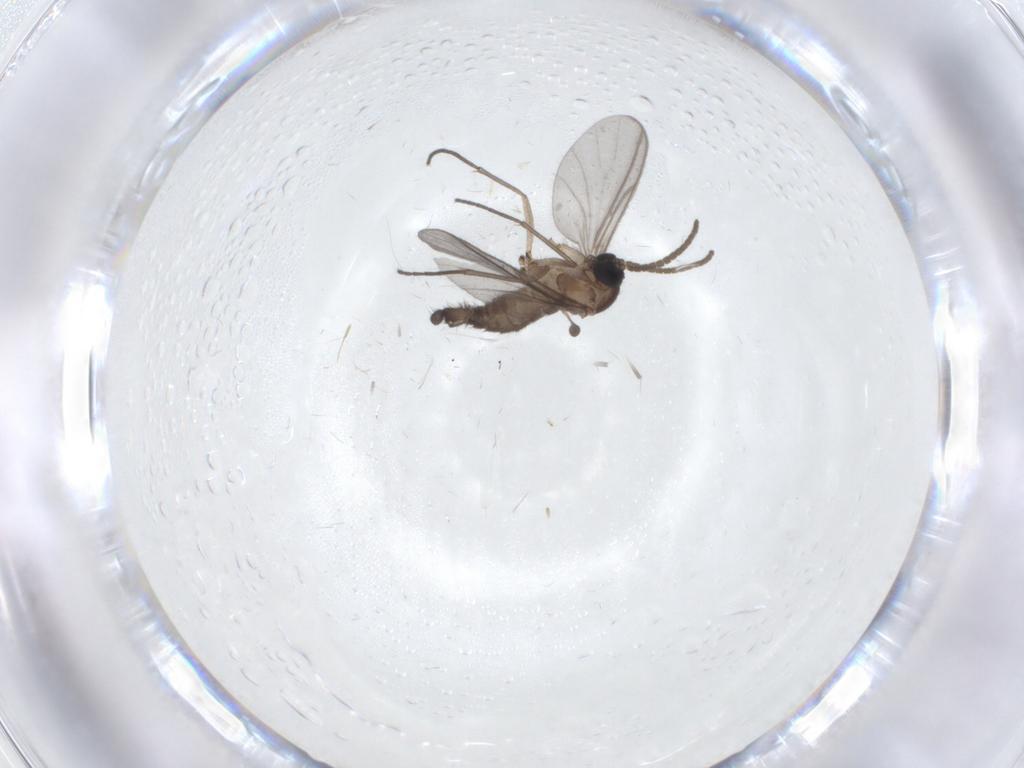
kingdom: Animalia
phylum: Arthropoda
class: Insecta
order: Diptera
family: Chironomidae
